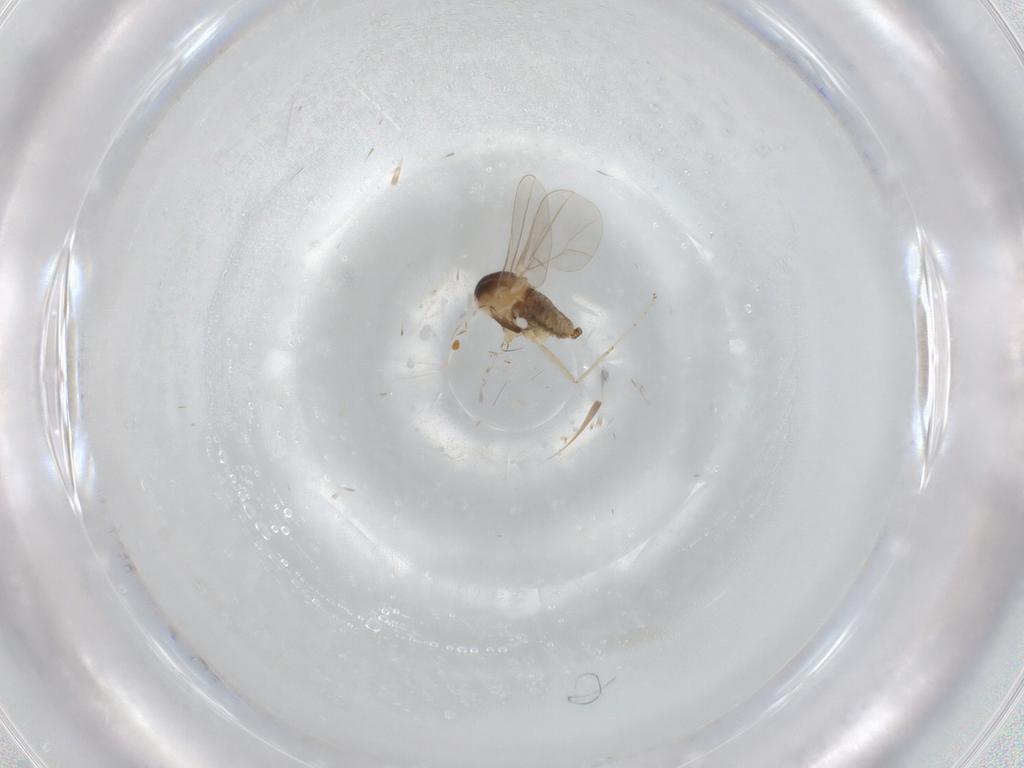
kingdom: Animalia
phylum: Arthropoda
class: Insecta
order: Diptera
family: Cecidomyiidae
